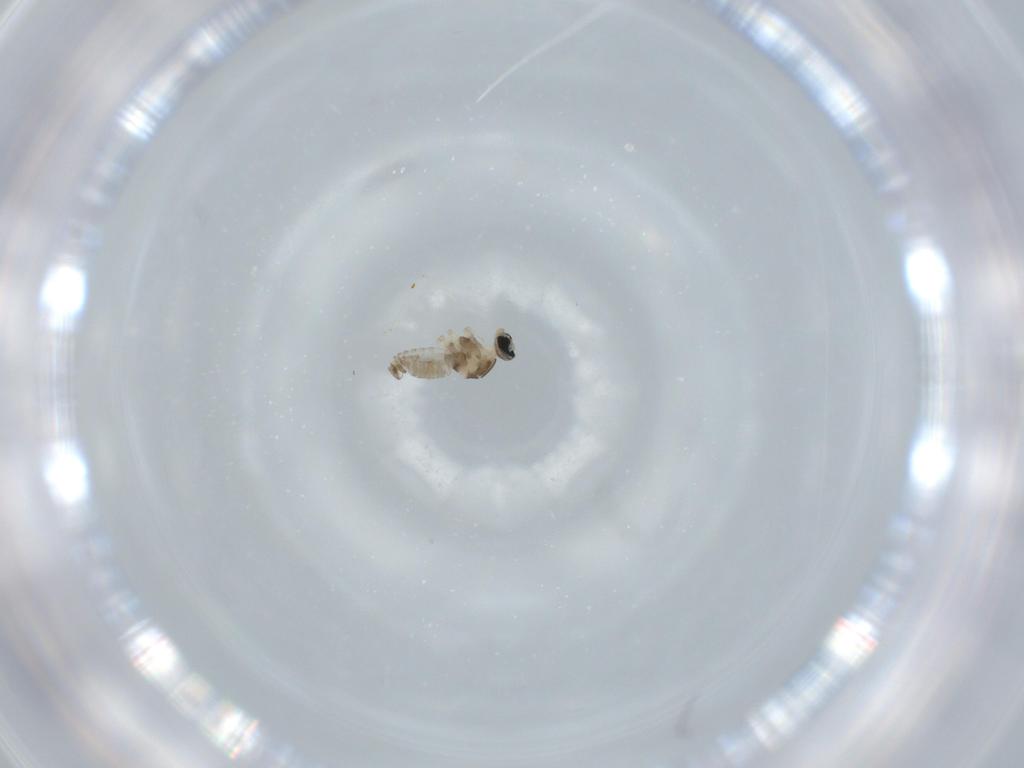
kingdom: Animalia
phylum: Arthropoda
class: Insecta
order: Diptera
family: Cecidomyiidae
